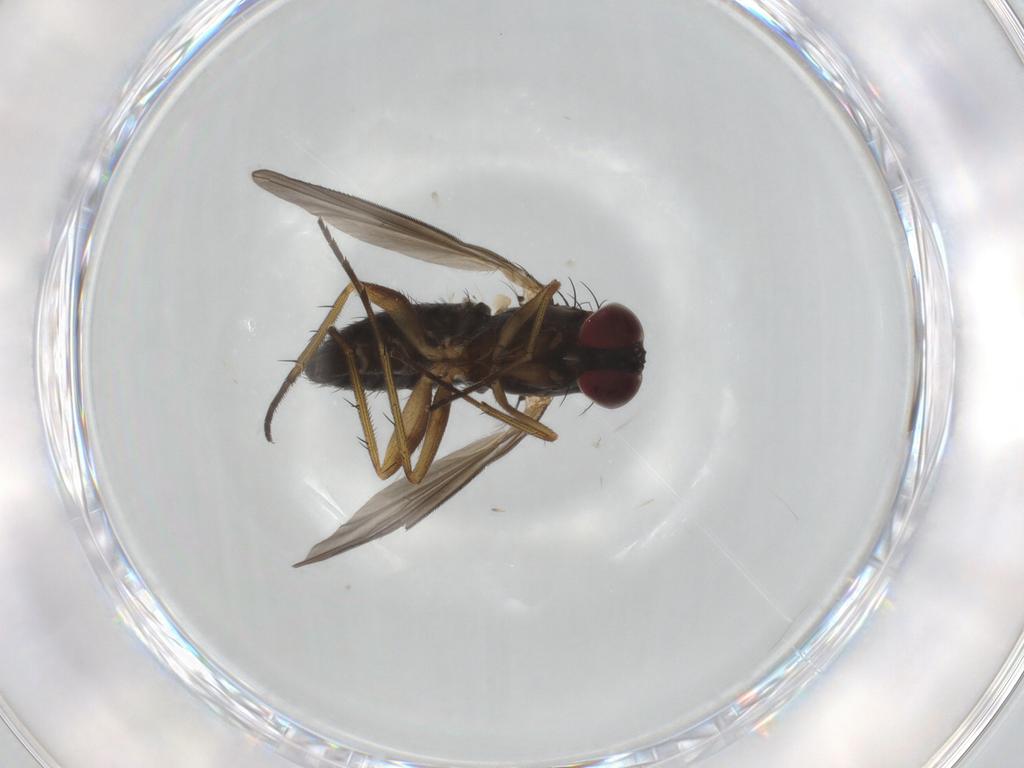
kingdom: Animalia
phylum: Arthropoda
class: Insecta
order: Diptera
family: Dolichopodidae
